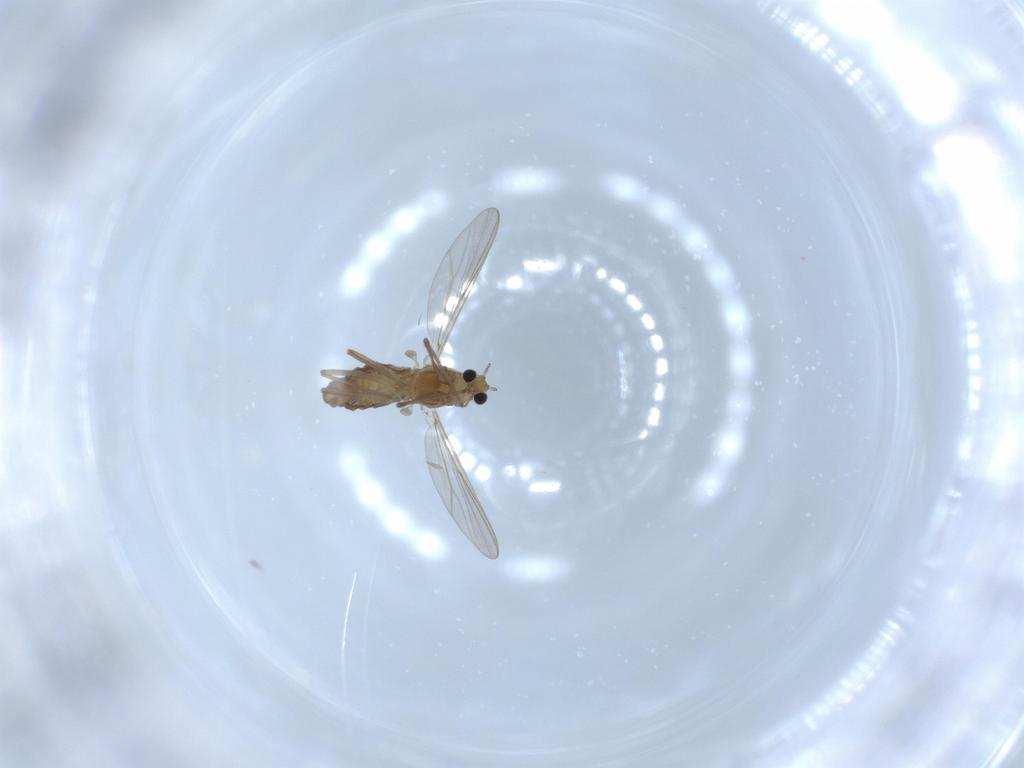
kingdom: Animalia
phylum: Arthropoda
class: Insecta
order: Diptera
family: Chironomidae
